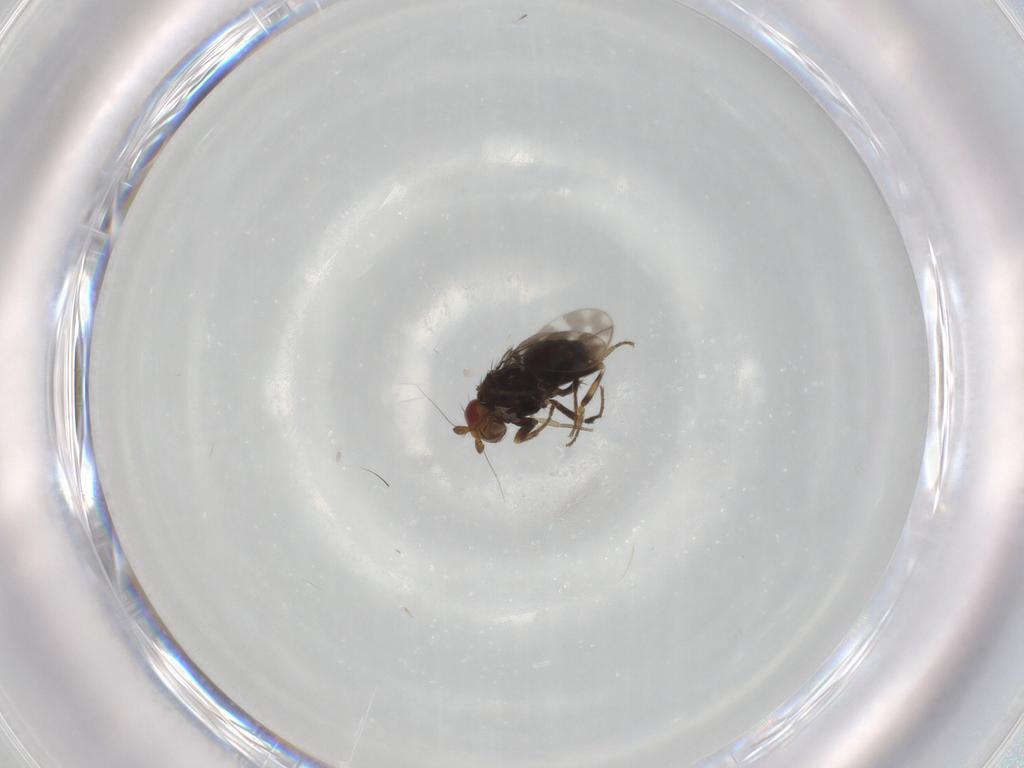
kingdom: Animalia
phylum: Arthropoda
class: Insecta
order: Diptera
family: Sphaeroceridae
